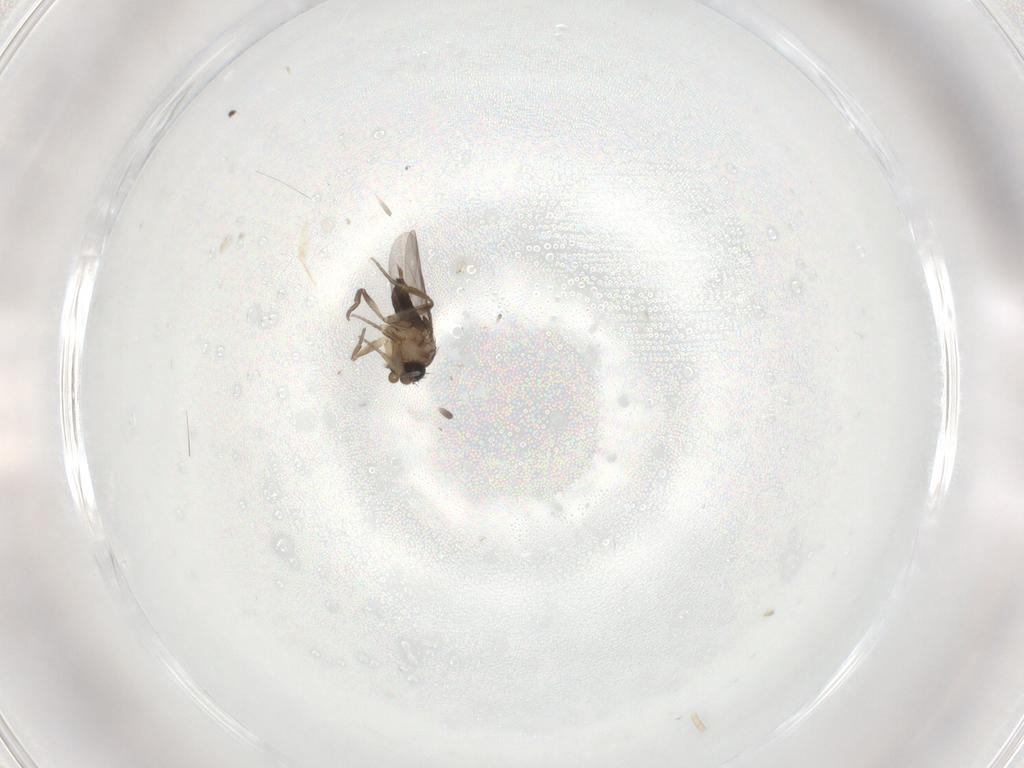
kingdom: Animalia
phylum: Arthropoda
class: Insecta
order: Diptera
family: Phoridae
